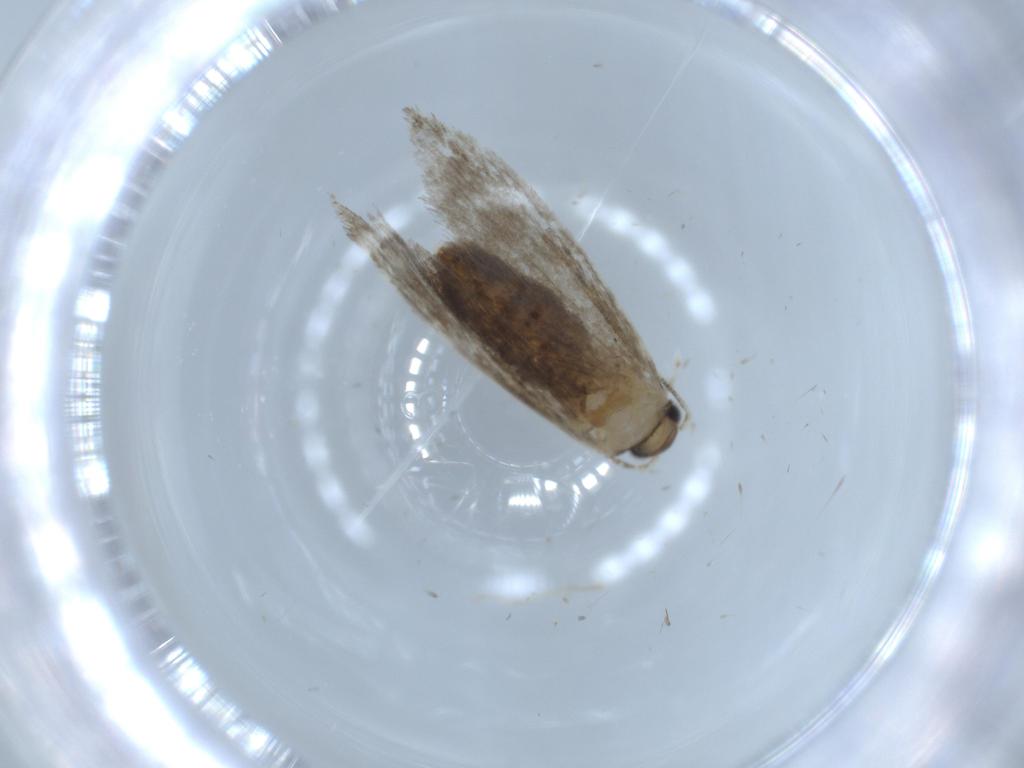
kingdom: Animalia
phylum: Arthropoda
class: Insecta
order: Lepidoptera
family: Tineidae
